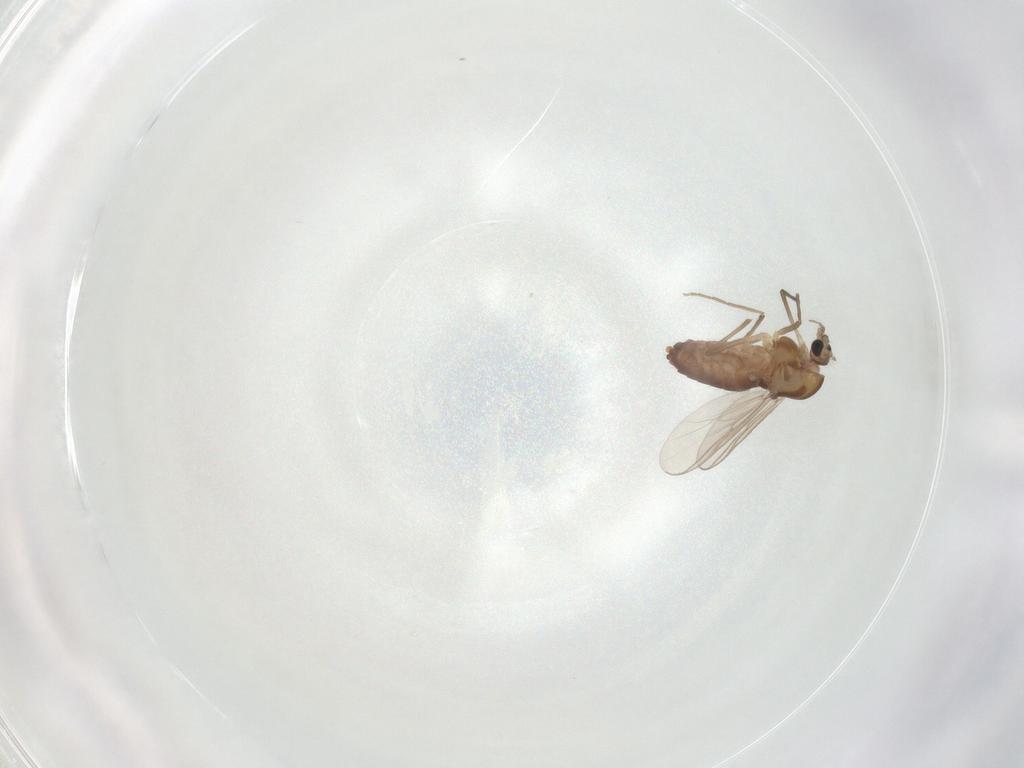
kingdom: Animalia
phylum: Arthropoda
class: Insecta
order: Diptera
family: Chironomidae
